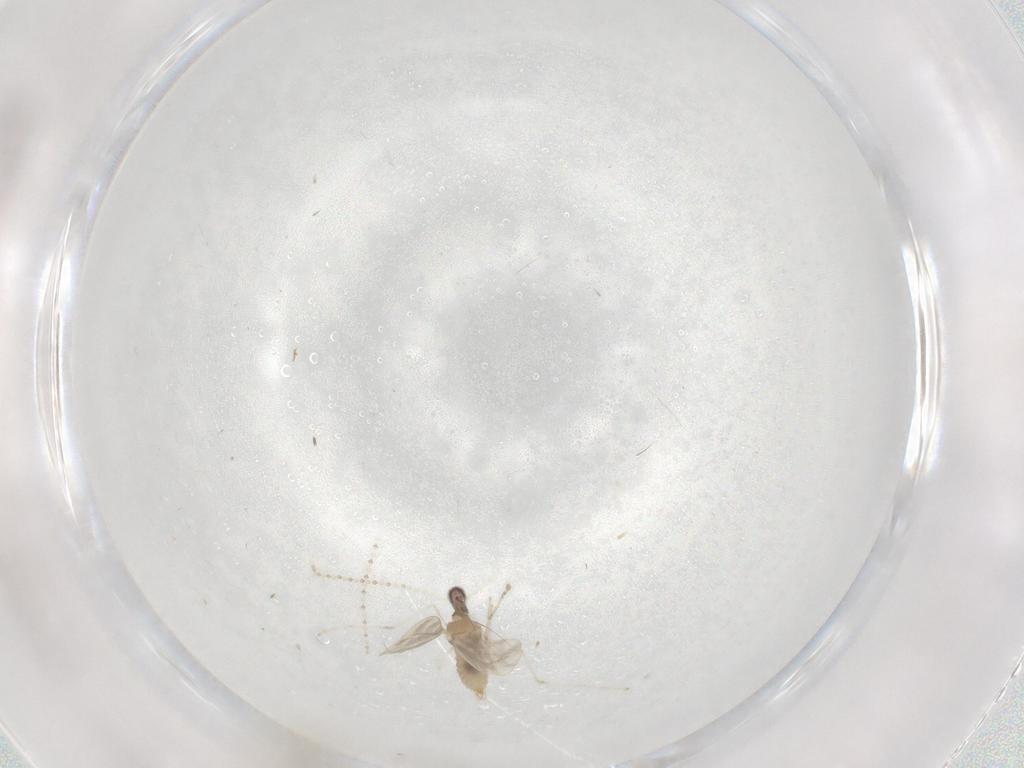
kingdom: Animalia
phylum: Arthropoda
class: Insecta
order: Diptera
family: Cecidomyiidae
